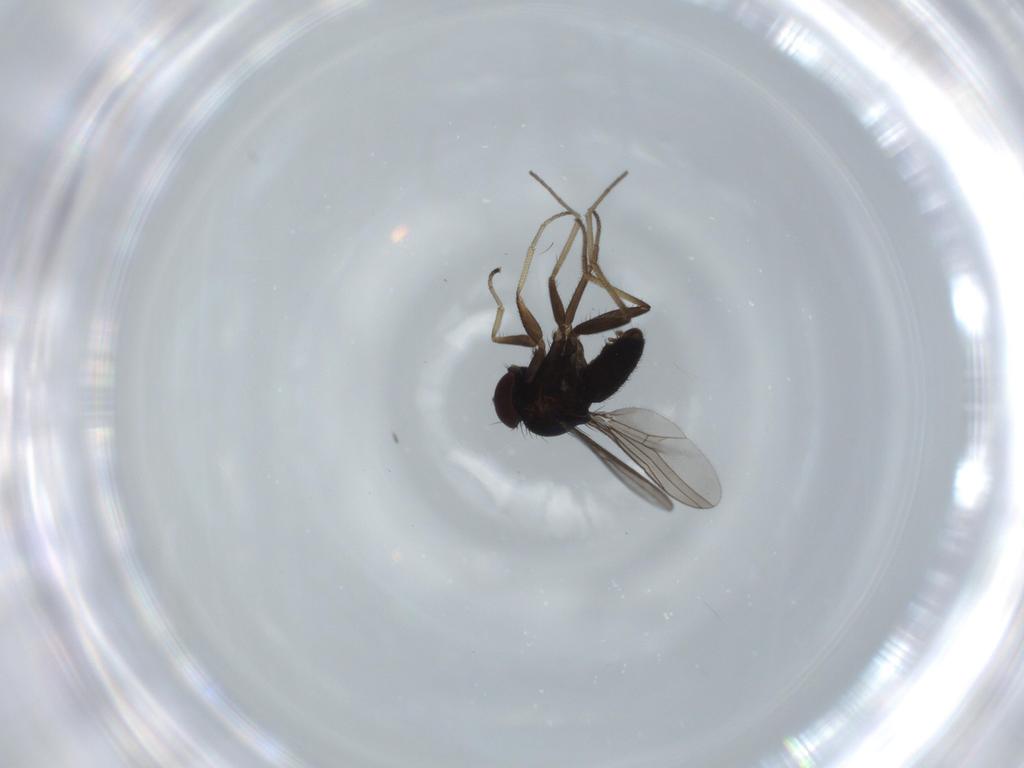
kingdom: Animalia
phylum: Arthropoda
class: Insecta
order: Diptera
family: Dolichopodidae
